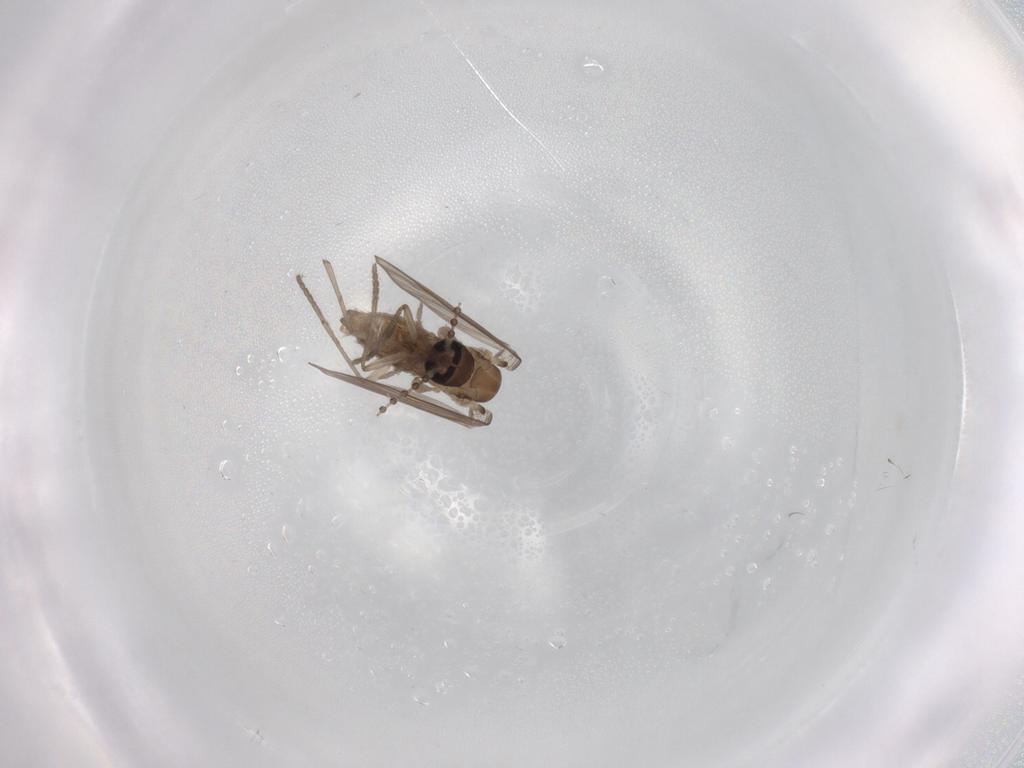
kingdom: Animalia
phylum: Arthropoda
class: Insecta
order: Diptera
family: Psychodidae
